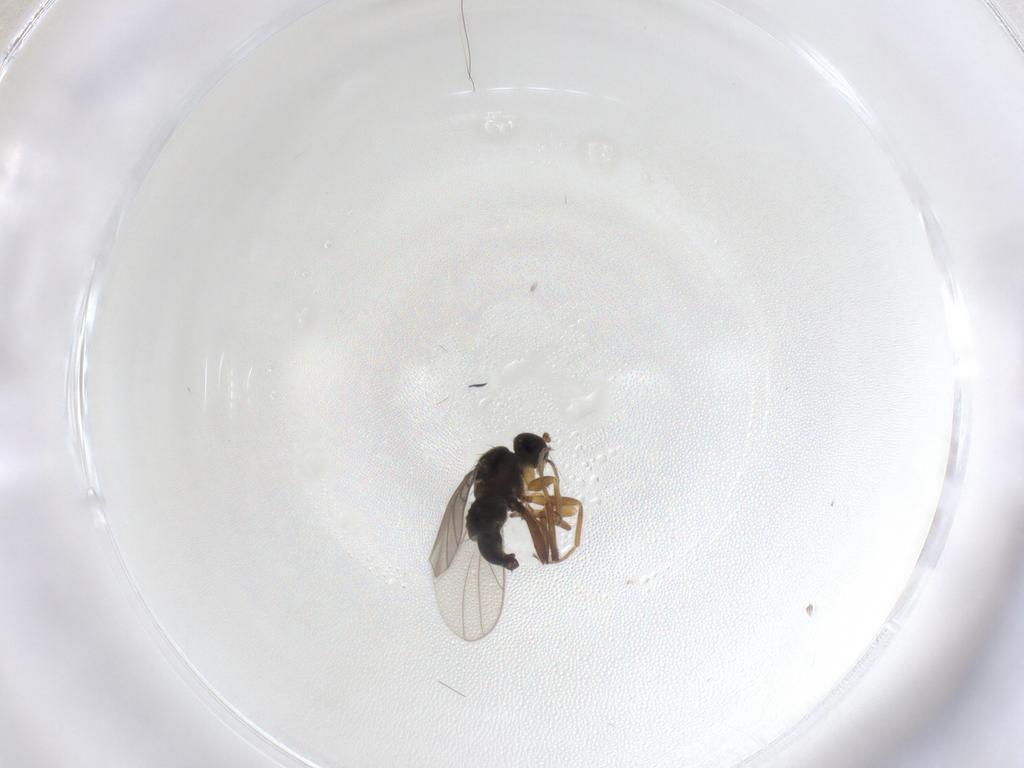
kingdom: Animalia
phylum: Arthropoda
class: Insecta
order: Diptera
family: Hybotidae
